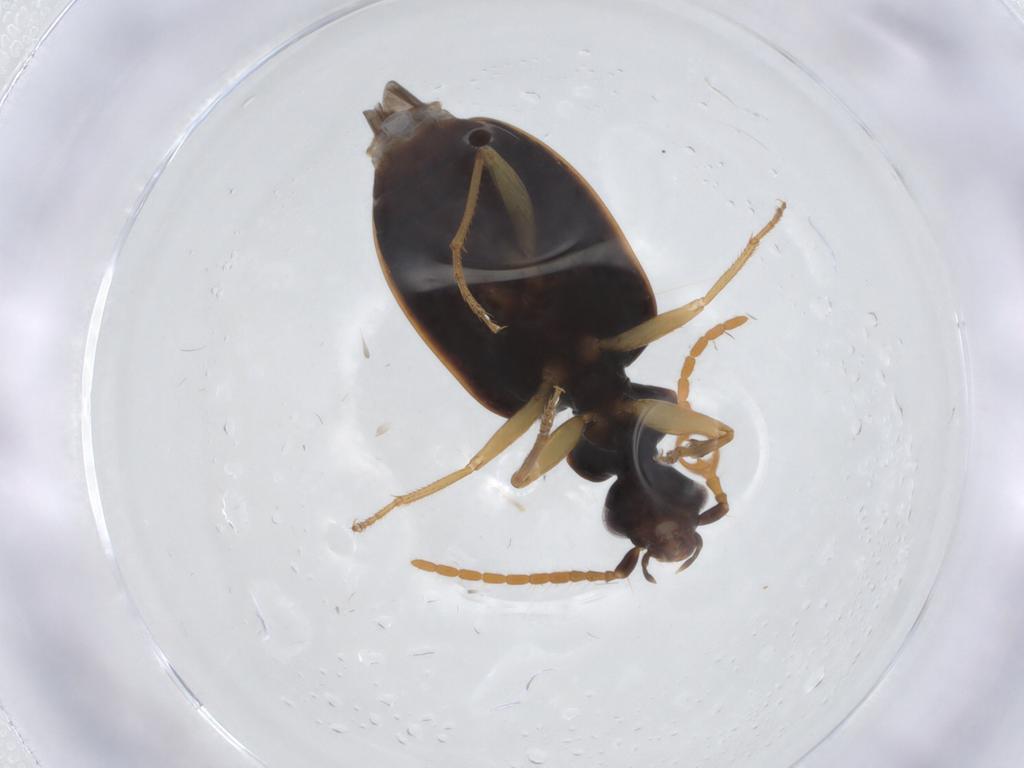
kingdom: Animalia
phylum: Arthropoda
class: Insecta
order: Coleoptera
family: Carabidae
